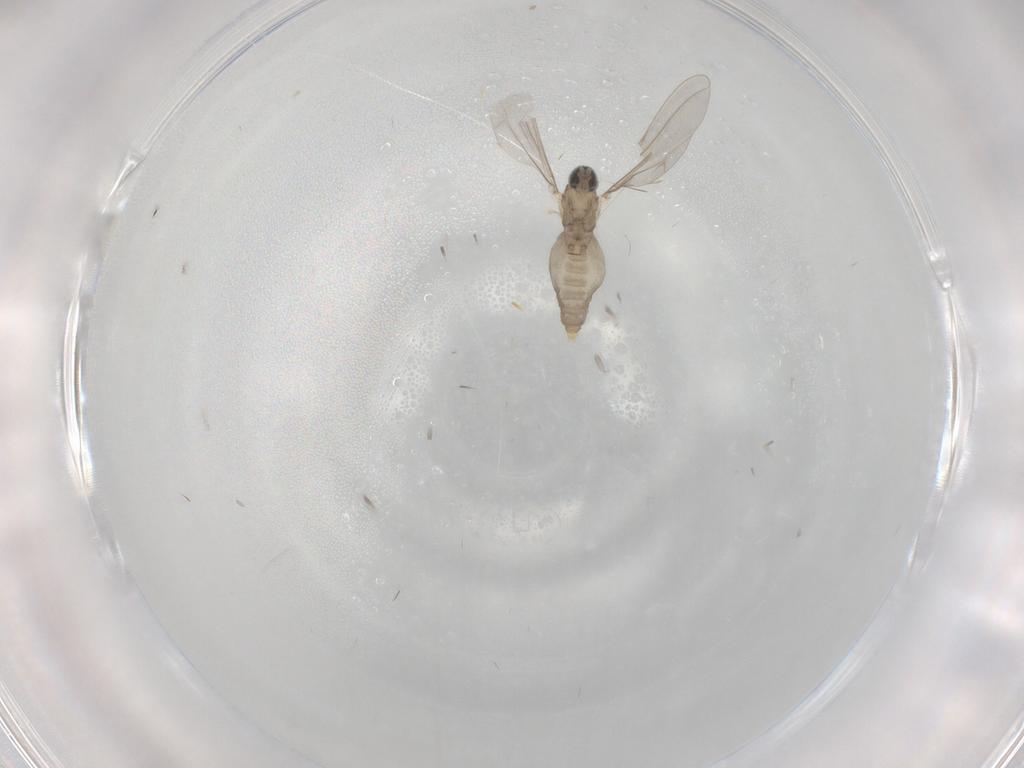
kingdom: Animalia
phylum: Arthropoda
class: Insecta
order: Diptera
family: Cecidomyiidae
